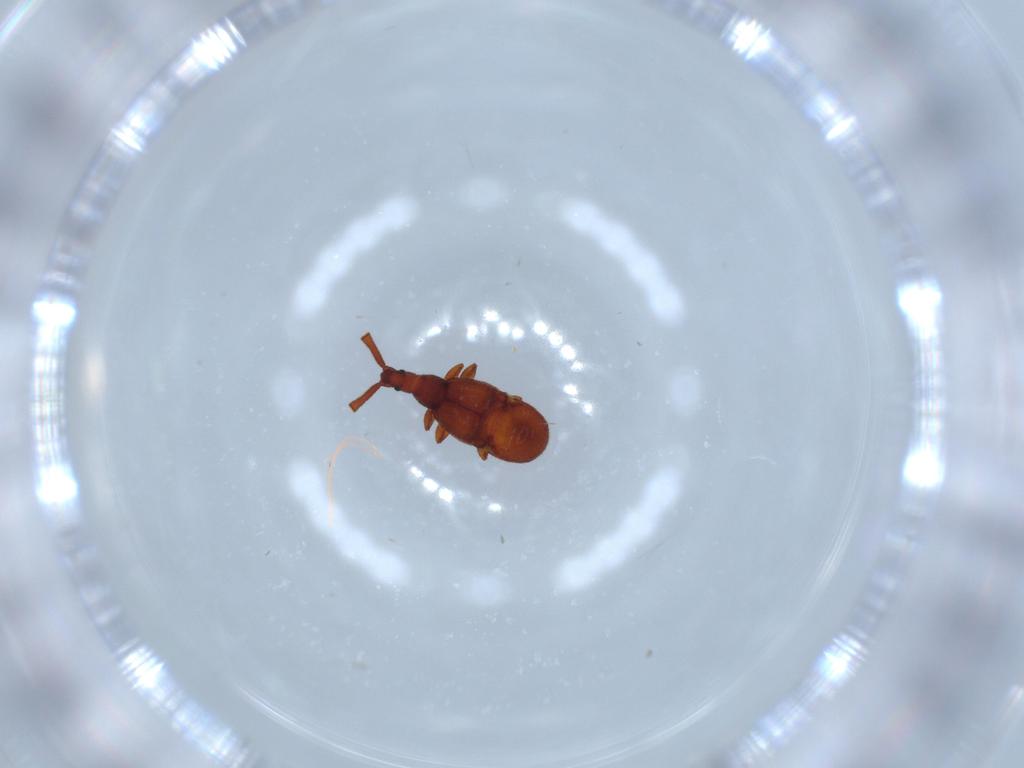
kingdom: Animalia
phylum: Arthropoda
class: Insecta
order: Coleoptera
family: Staphylinidae
